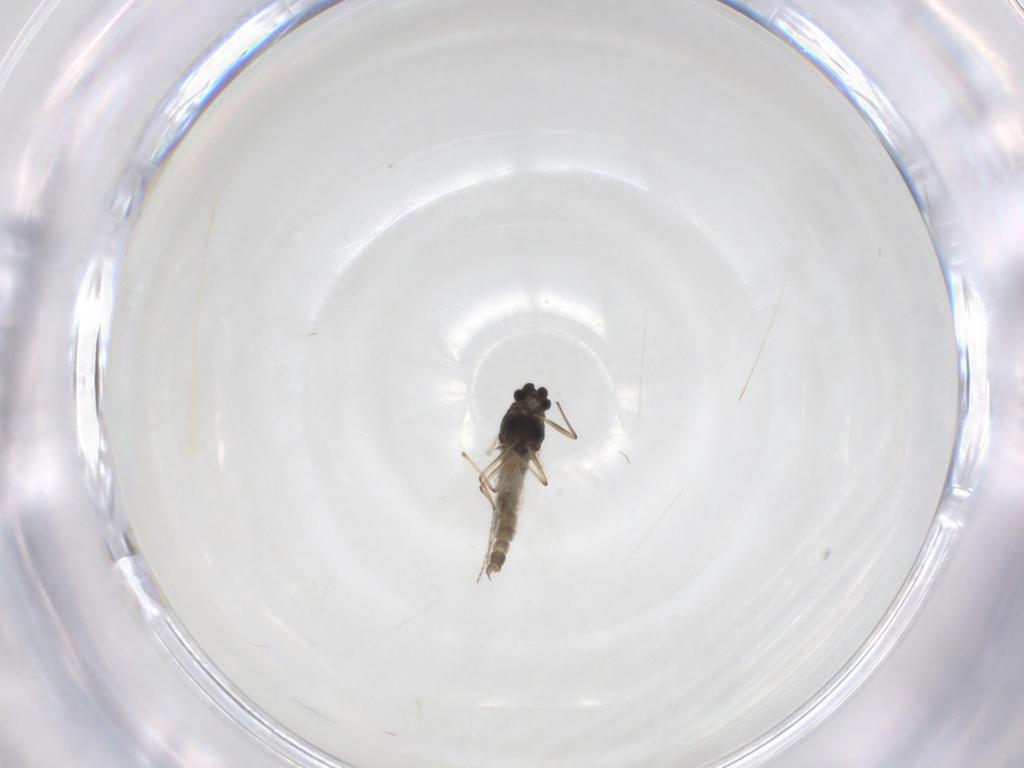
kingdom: Animalia
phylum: Arthropoda
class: Insecta
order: Diptera
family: Chironomidae
